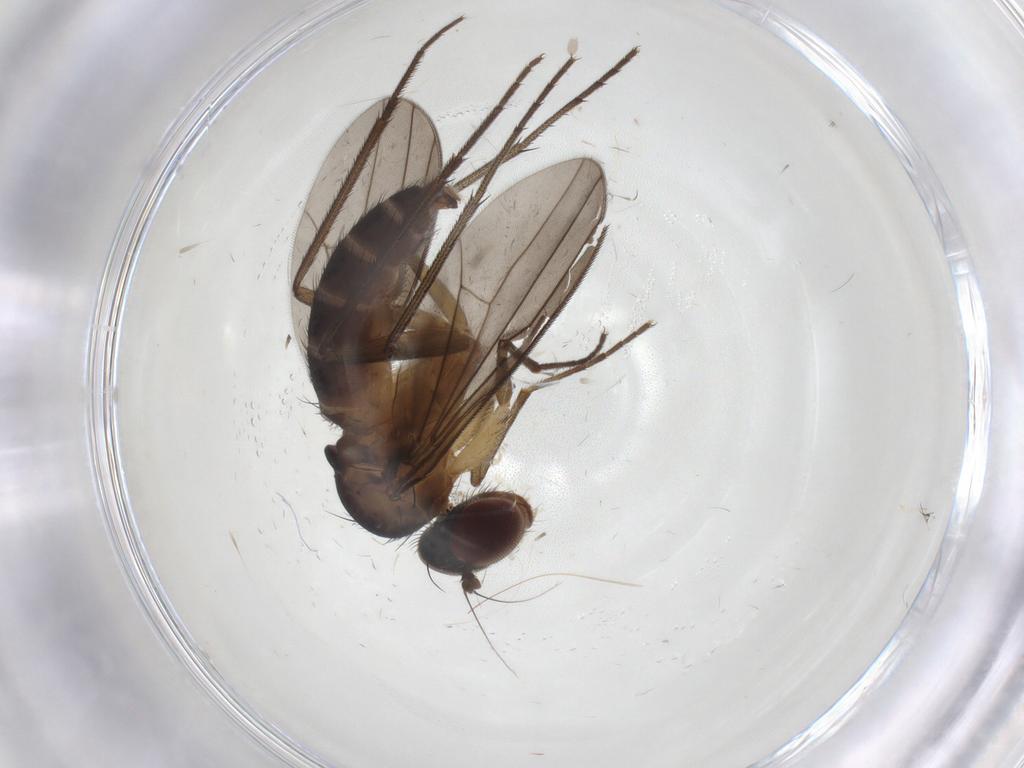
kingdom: Animalia
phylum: Arthropoda
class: Insecta
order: Diptera
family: Dolichopodidae
